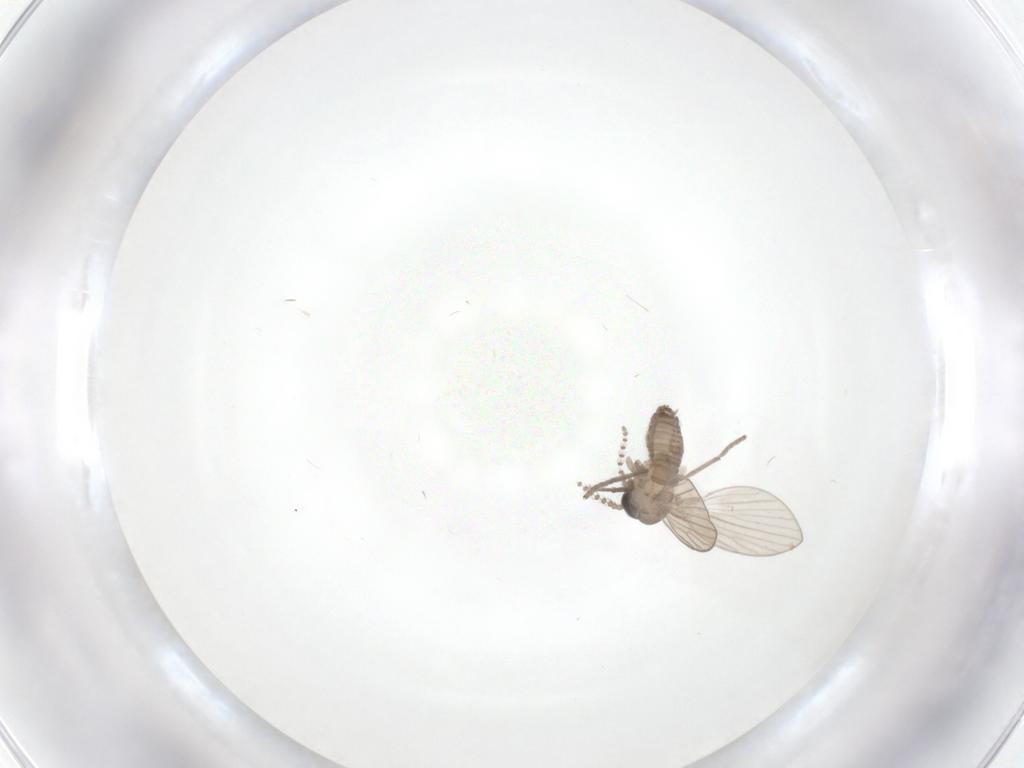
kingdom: Animalia
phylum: Arthropoda
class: Insecta
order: Diptera
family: Psychodidae
